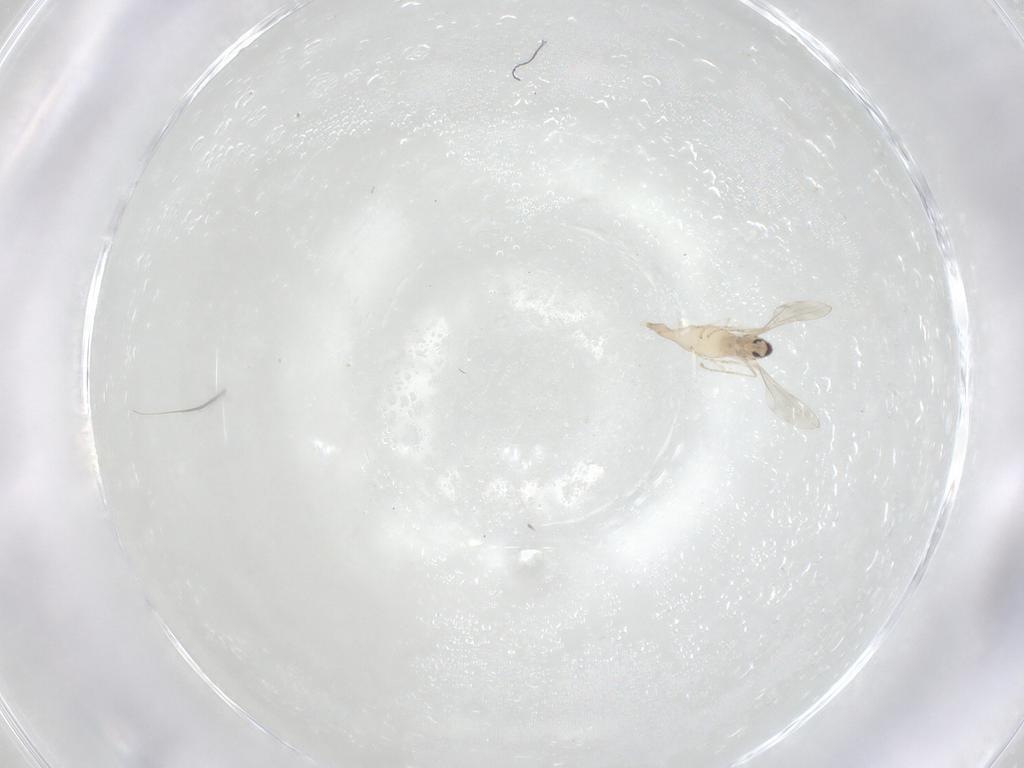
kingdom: Animalia
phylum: Arthropoda
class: Insecta
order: Diptera
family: Cecidomyiidae
